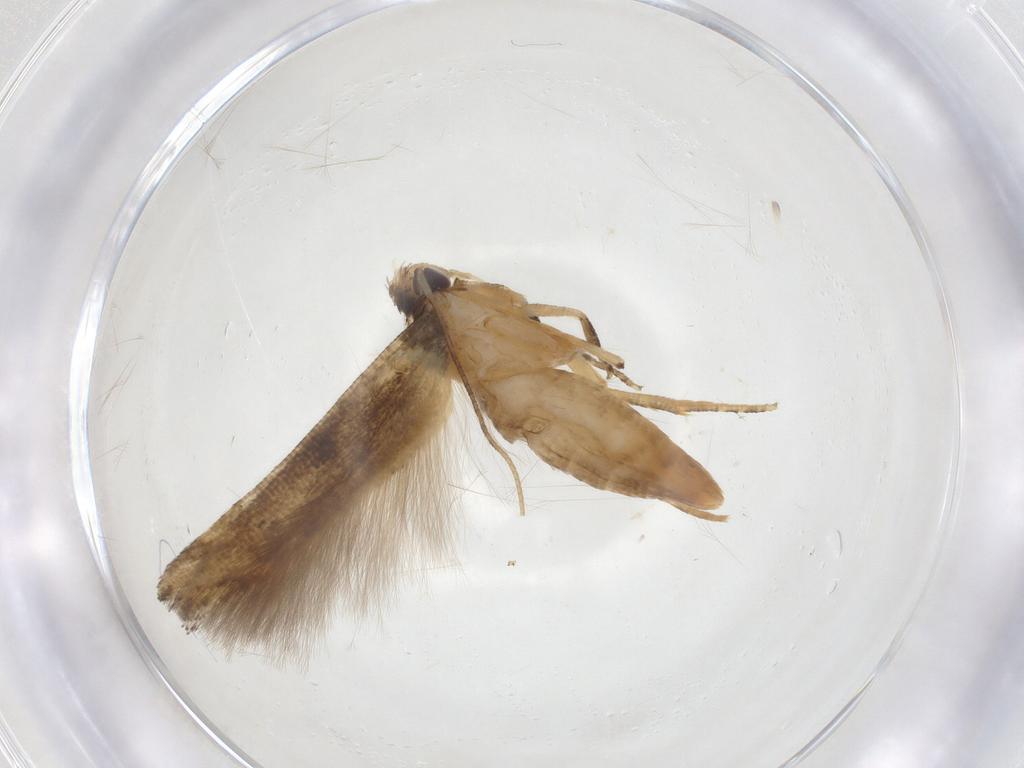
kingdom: Animalia
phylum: Arthropoda
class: Insecta
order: Lepidoptera
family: Cosmopterigidae
